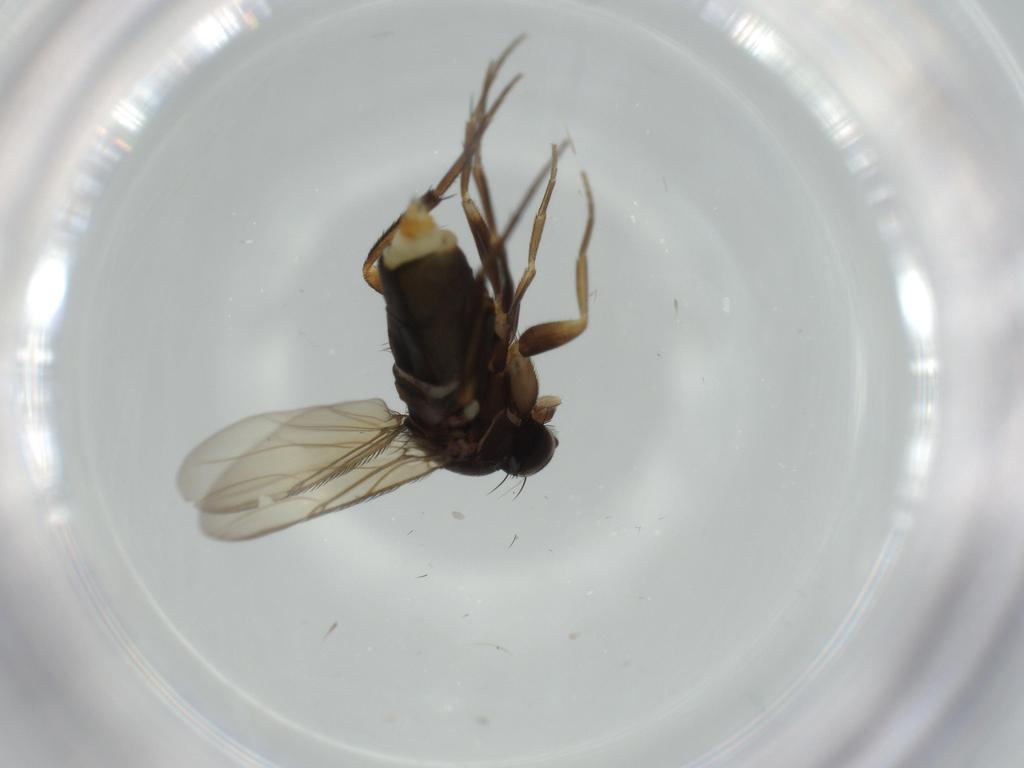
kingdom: Animalia
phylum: Arthropoda
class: Insecta
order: Diptera
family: Phoridae
